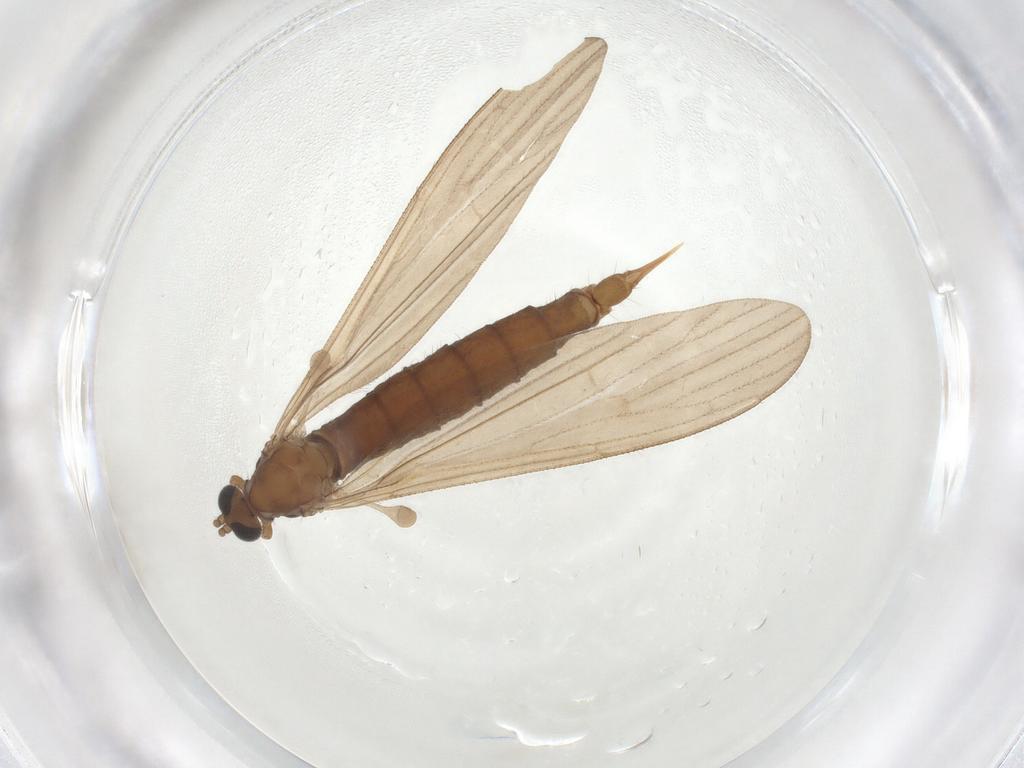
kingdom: Animalia
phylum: Arthropoda
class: Insecta
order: Diptera
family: Limoniidae
